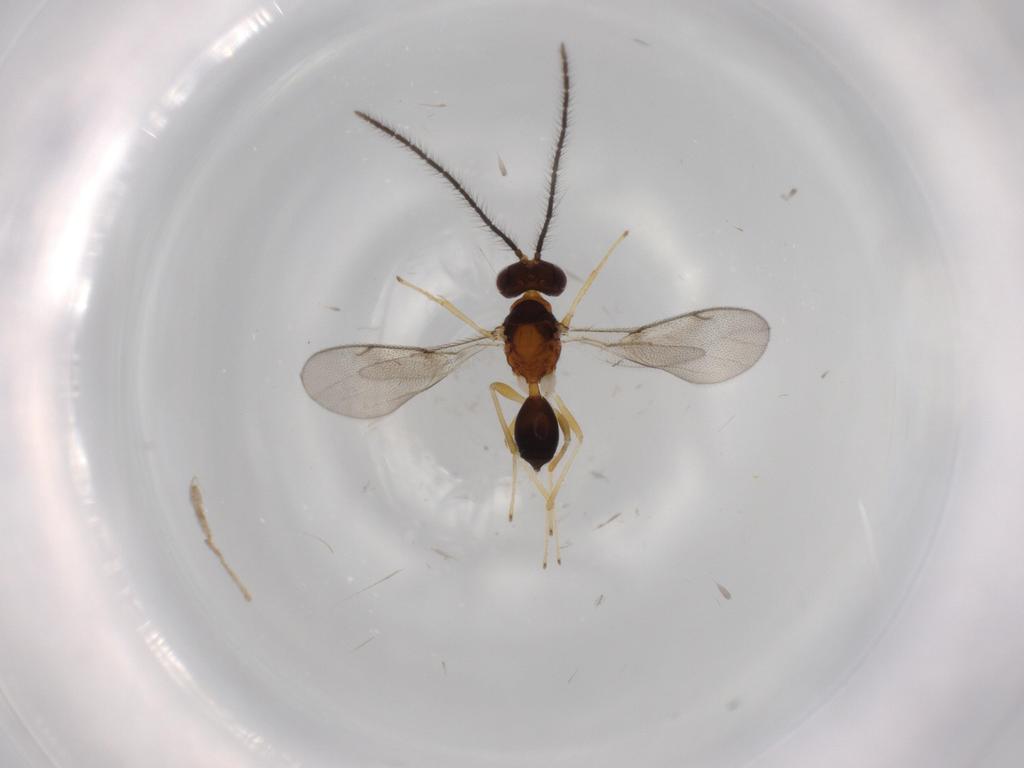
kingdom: Animalia
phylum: Arthropoda
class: Insecta
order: Hymenoptera
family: Diparidae
